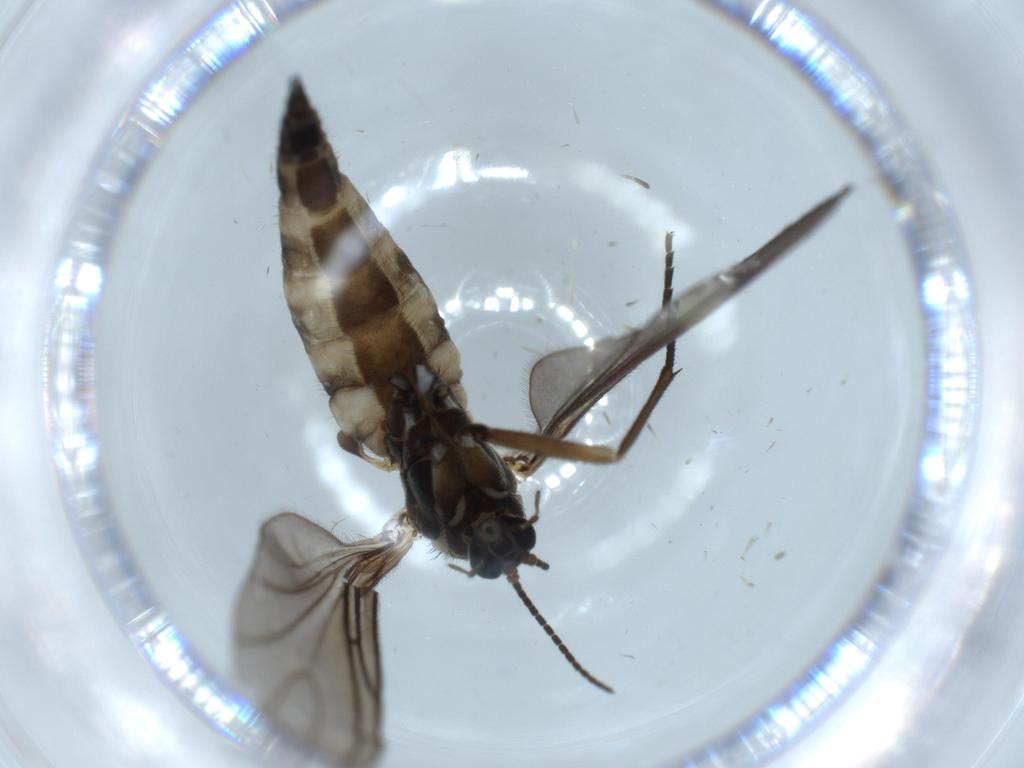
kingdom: Animalia
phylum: Arthropoda
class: Insecta
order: Diptera
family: Sciaridae
